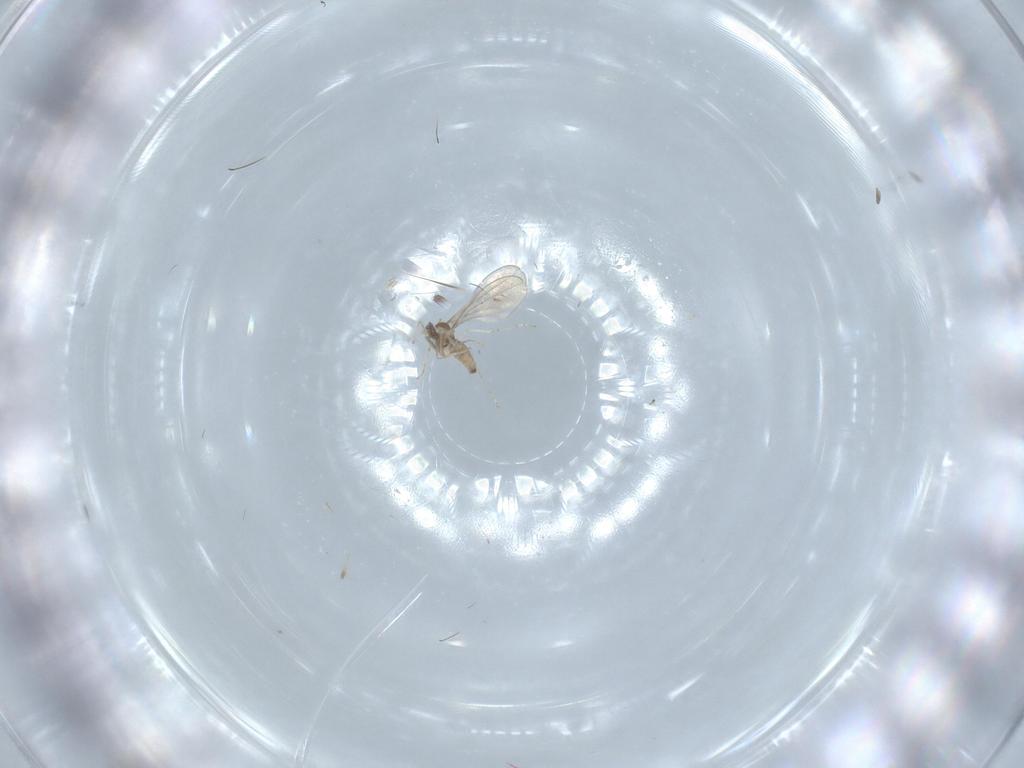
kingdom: Animalia
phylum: Arthropoda
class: Insecta
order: Diptera
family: Cecidomyiidae
